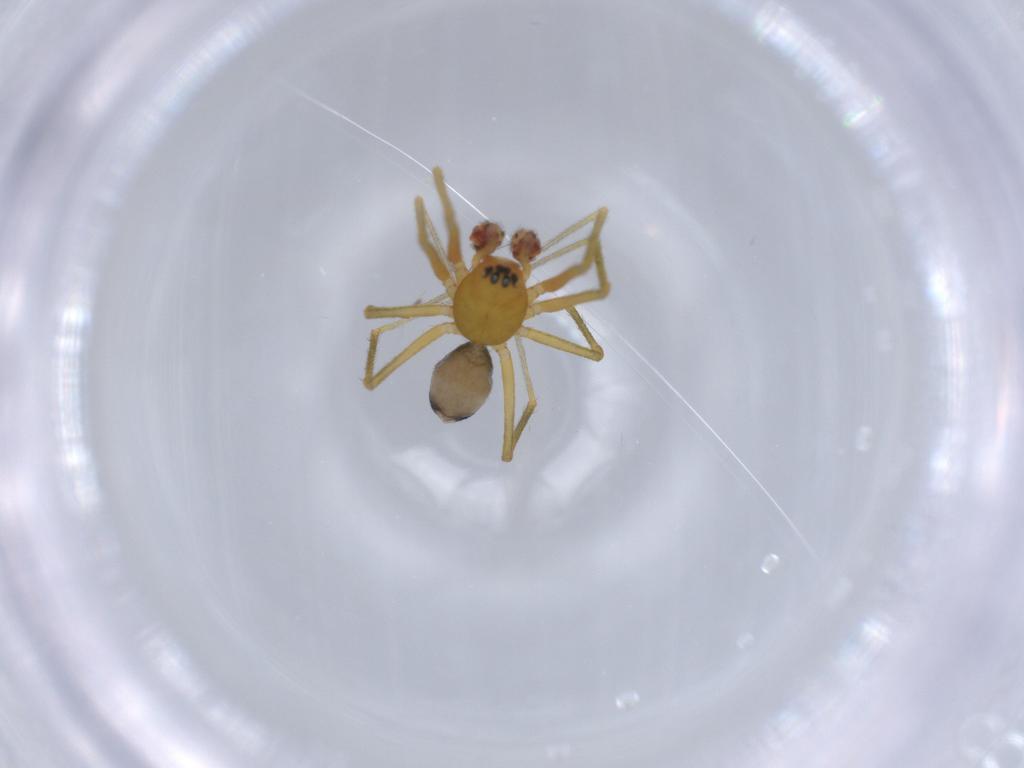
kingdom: Animalia
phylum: Arthropoda
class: Arachnida
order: Araneae
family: Linyphiidae
